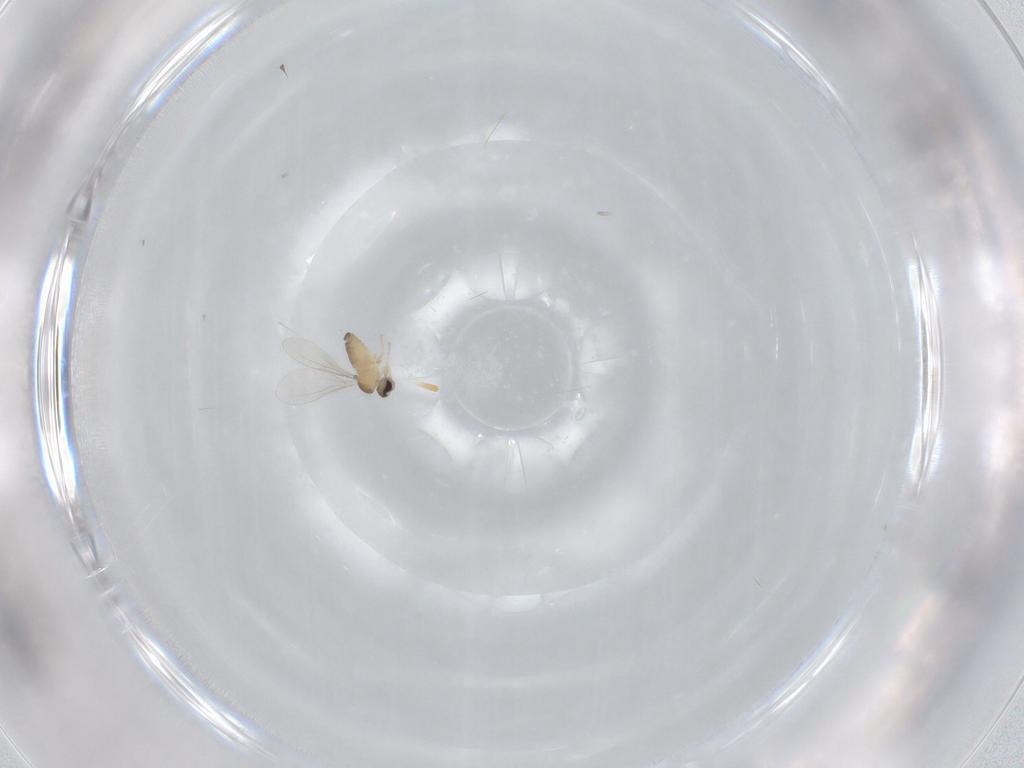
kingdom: Animalia
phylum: Arthropoda
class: Insecta
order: Diptera
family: Cecidomyiidae
